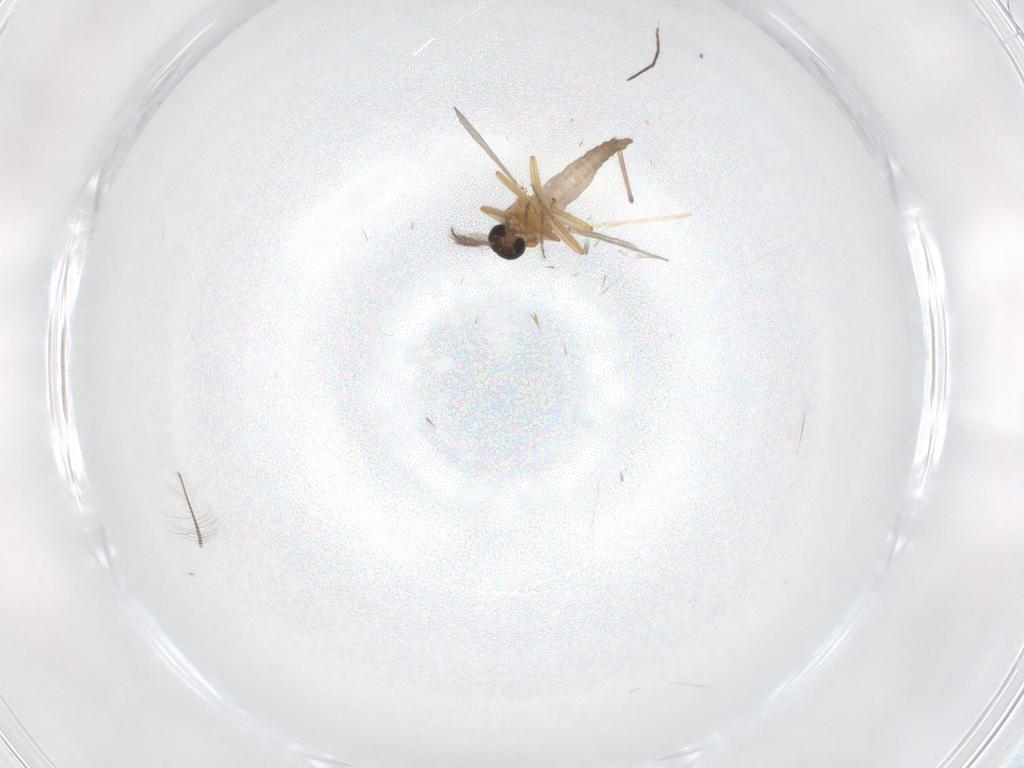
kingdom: Animalia
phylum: Arthropoda
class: Insecta
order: Diptera
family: Ceratopogonidae
